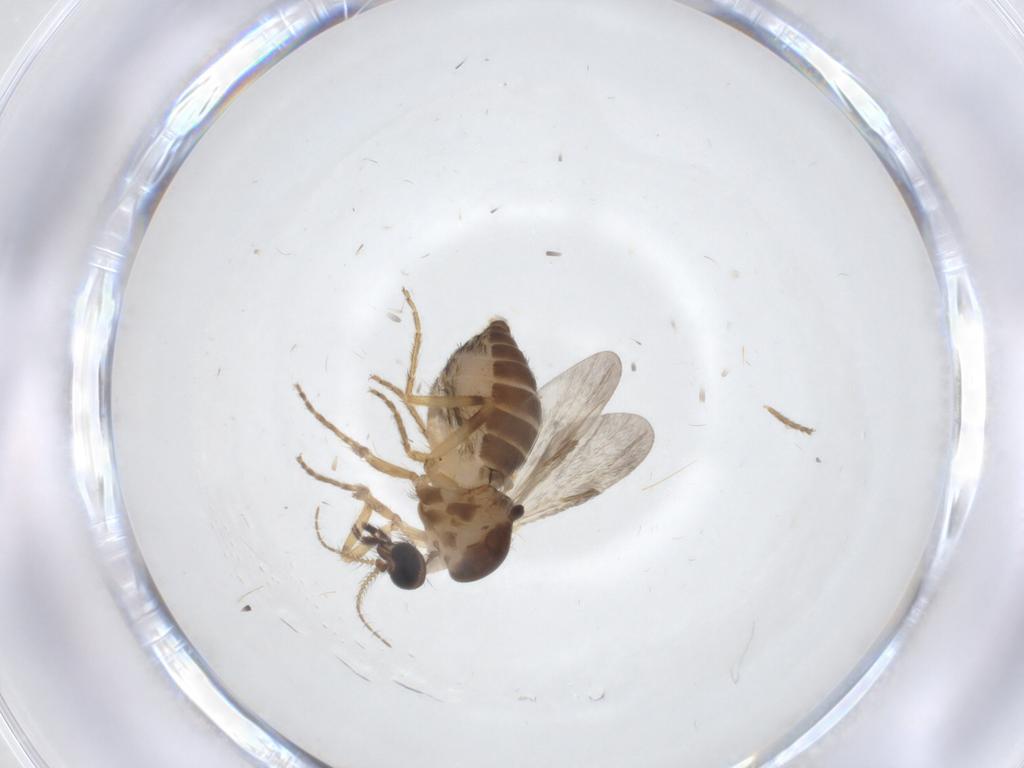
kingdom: Animalia
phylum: Arthropoda
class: Insecta
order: Diptera
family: Ceratopogonidae
